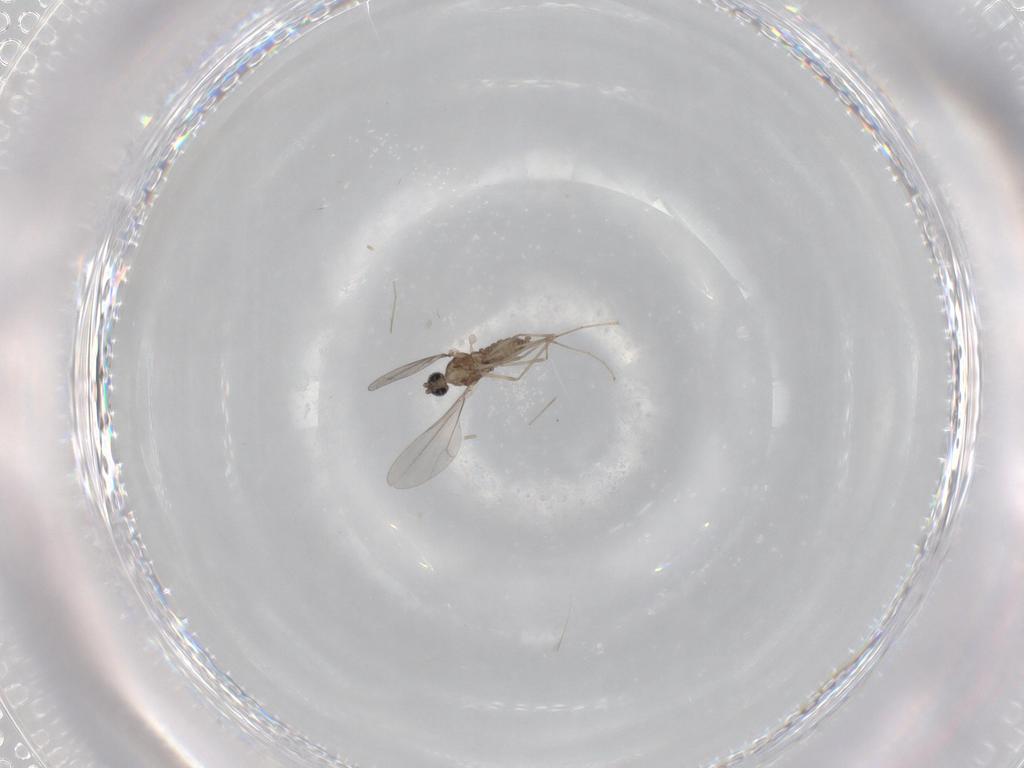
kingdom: Animalia
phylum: Arthropoda
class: Insecta
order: Diptera
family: Cecidomyiidae
